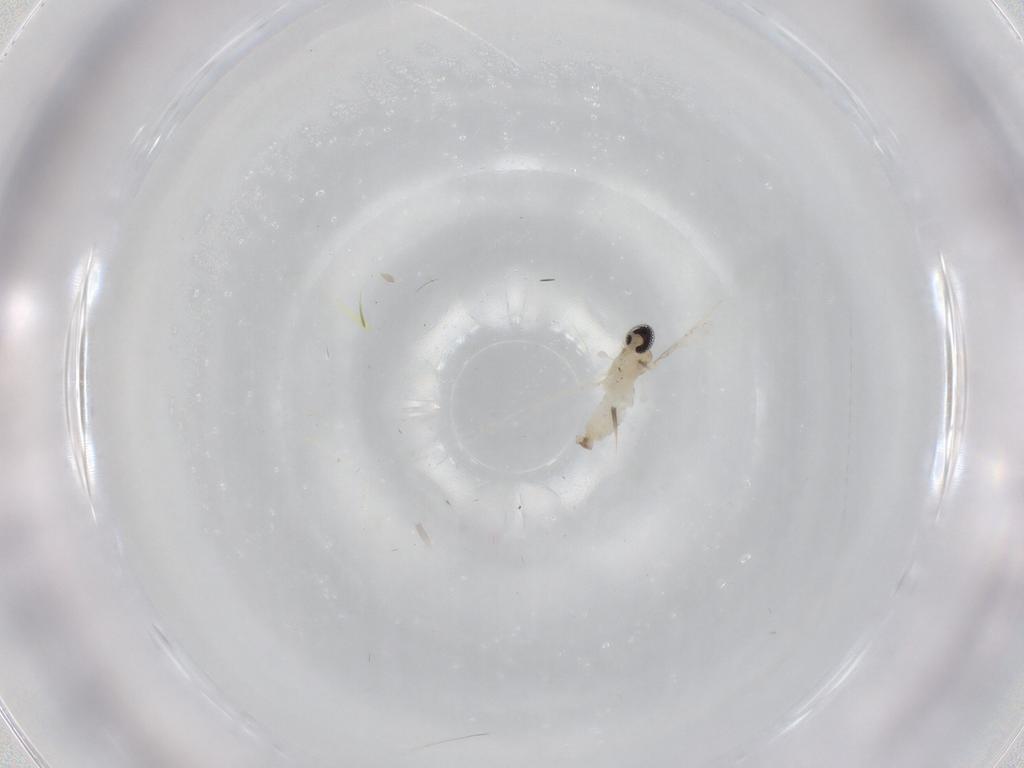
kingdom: Animalia
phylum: Arthropoda
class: Insecta
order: Diptera
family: Cecidomyiidae
